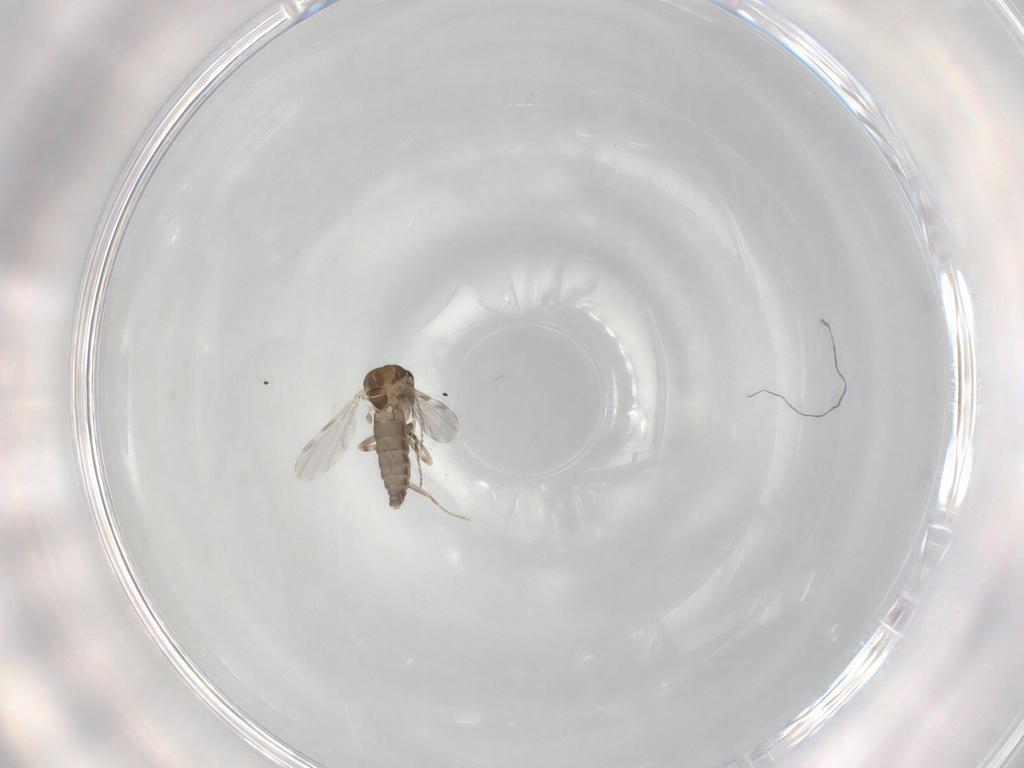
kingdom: Animalia
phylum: Arthropoda
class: Insecta
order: Diptera
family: Ceratopogonidae
